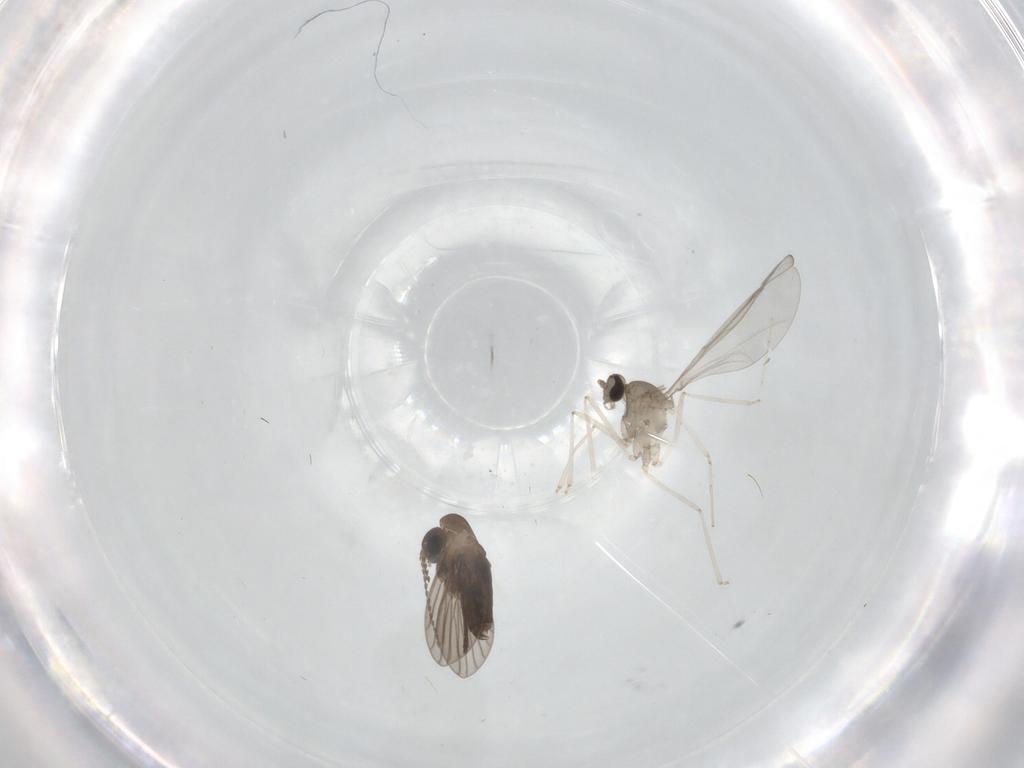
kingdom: Animalia
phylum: Arthropoda
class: Insecta
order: Diptera
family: Cecidomyiidae
